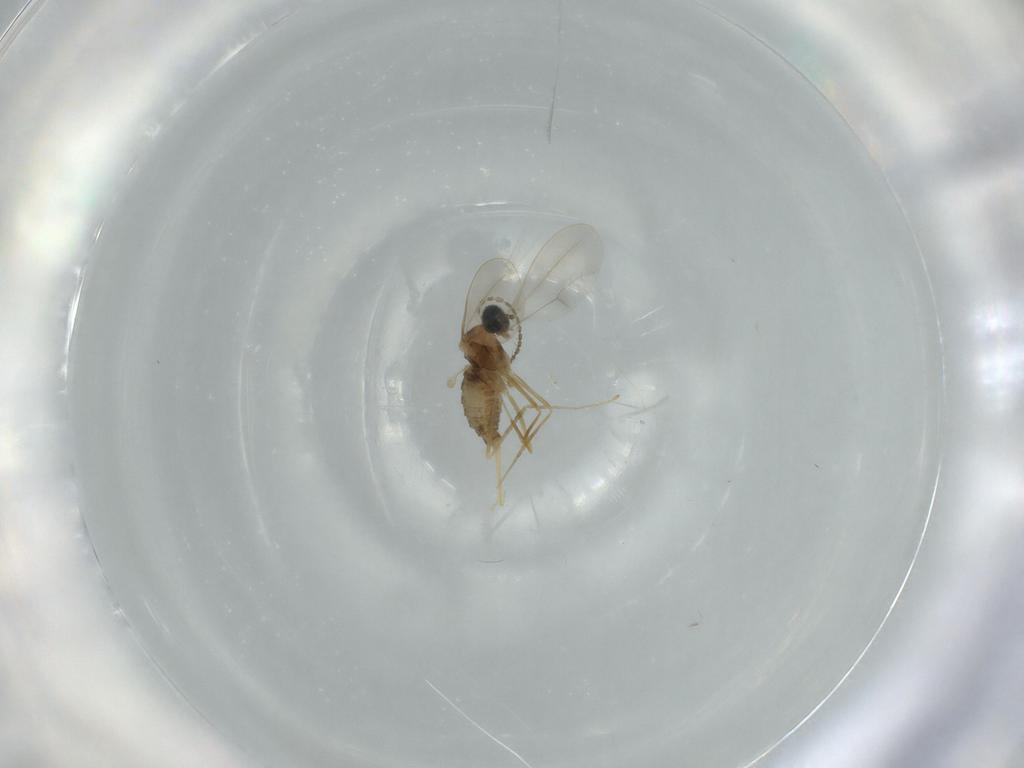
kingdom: Animalia
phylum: Arthropoda
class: Insecta
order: Diptera
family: Cecidomyiidae
